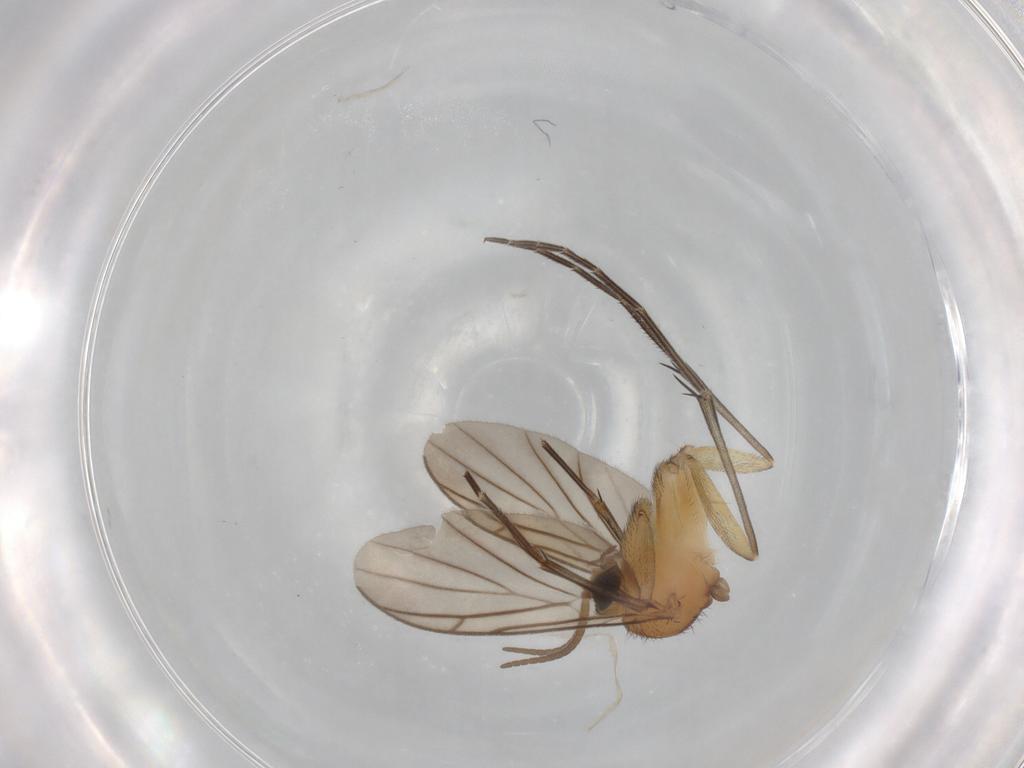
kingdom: Animalia
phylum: Arthropoda
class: Insecta
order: Diptera
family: Keroplatidae
